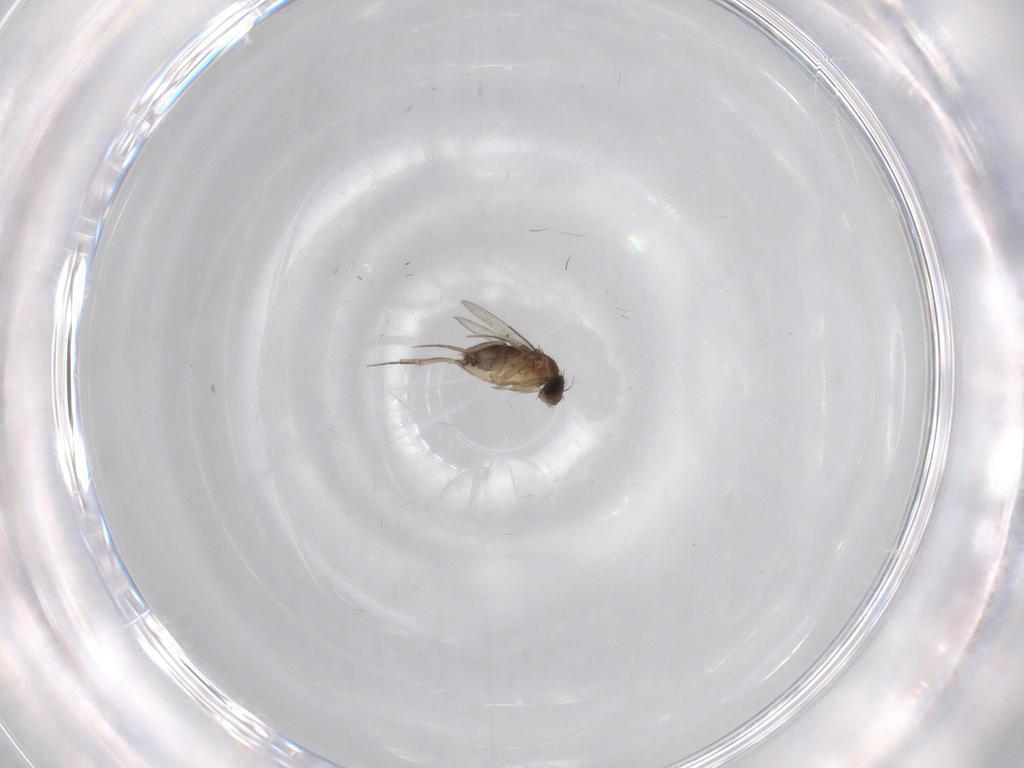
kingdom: Animalia
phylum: Arthropoda
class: Insecta
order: Diptera
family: Phoridae
